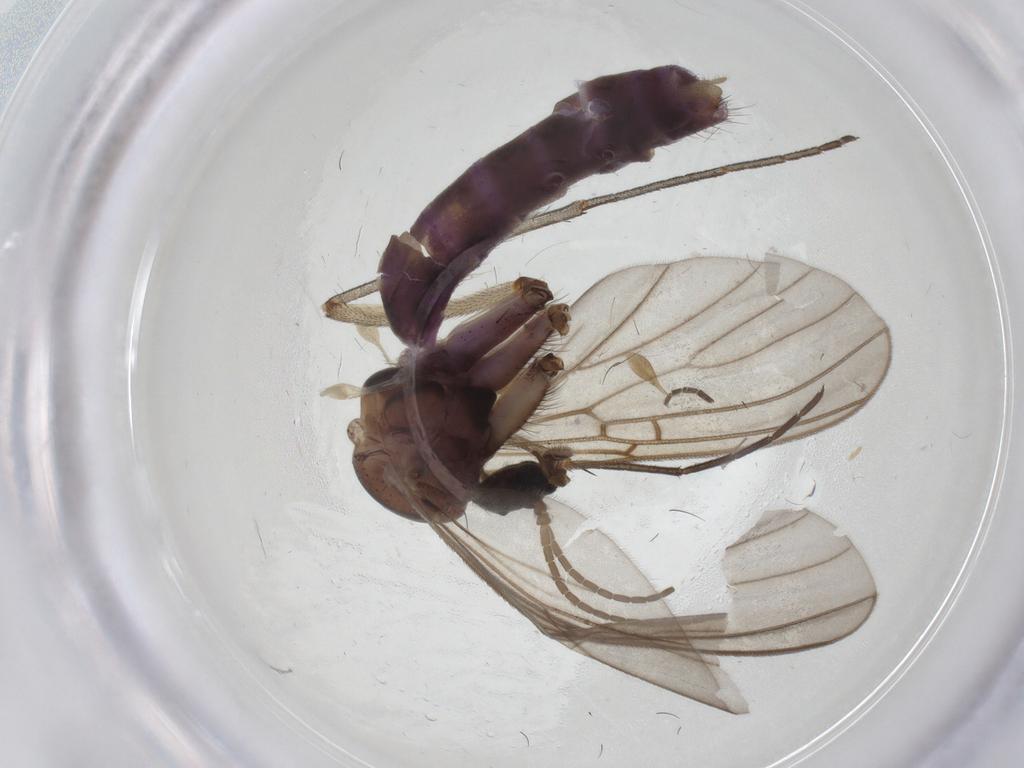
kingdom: Animalia
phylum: Arthropoda
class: Insecta
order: Diptera
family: Mycetophilidae
